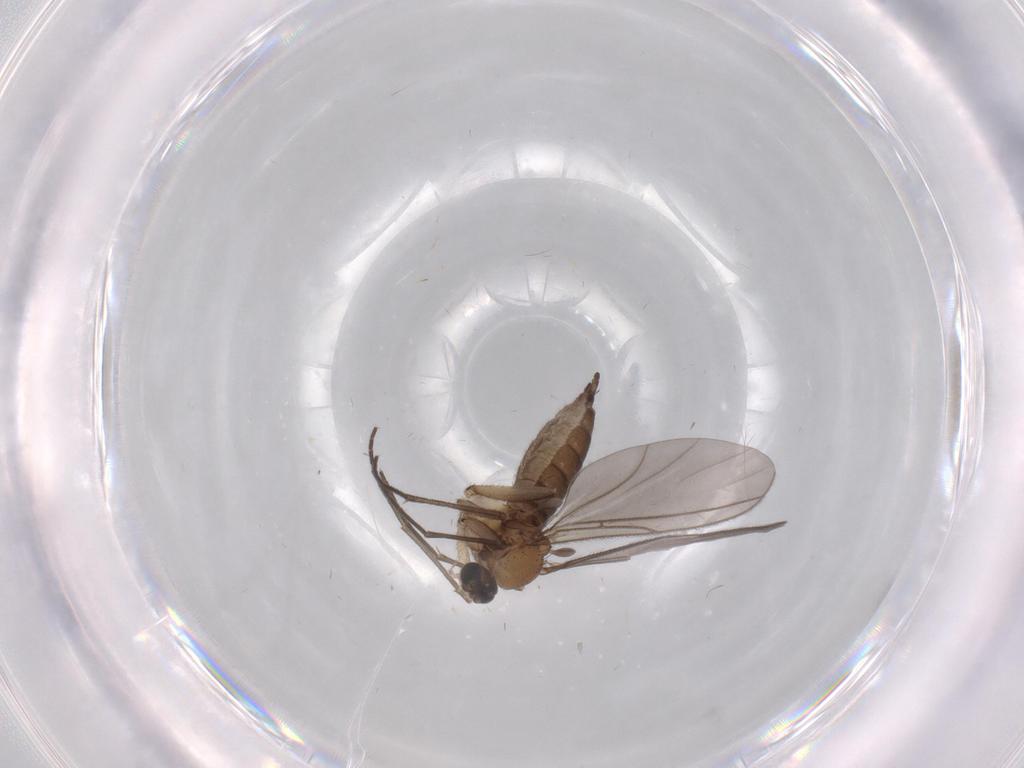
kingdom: Animalia
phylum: Arthropoda
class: Insecta
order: Diptera
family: Sciaridae
